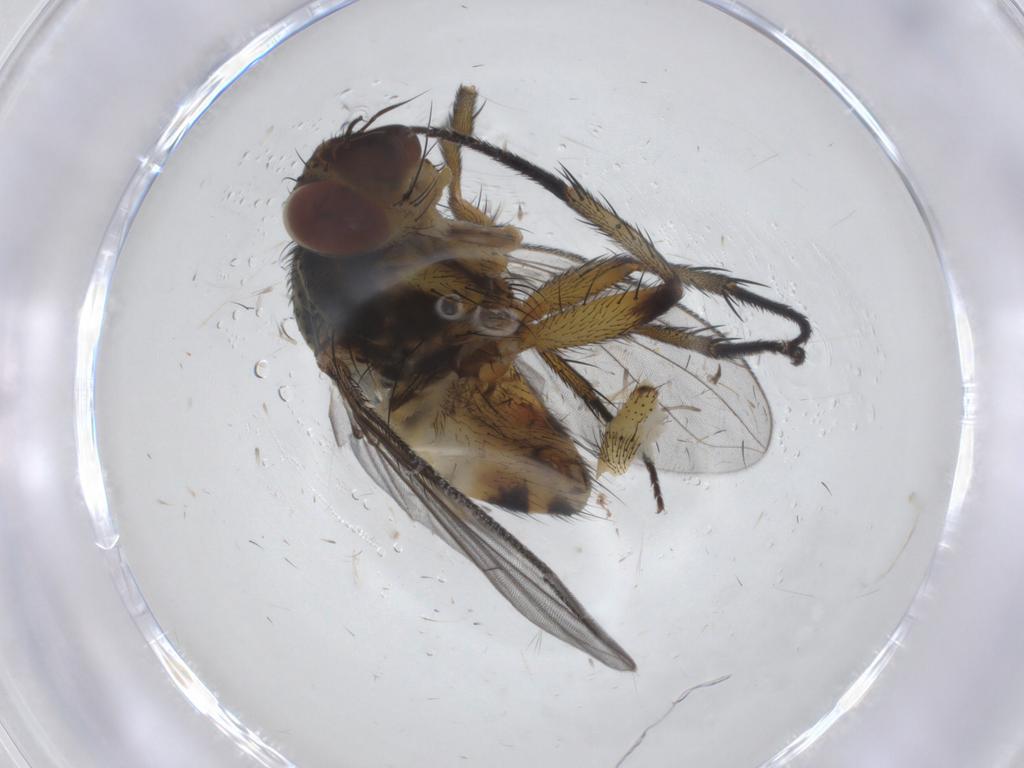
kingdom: Animalia
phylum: Arthropoda
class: Insecta
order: Diptera
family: Tachinidae
